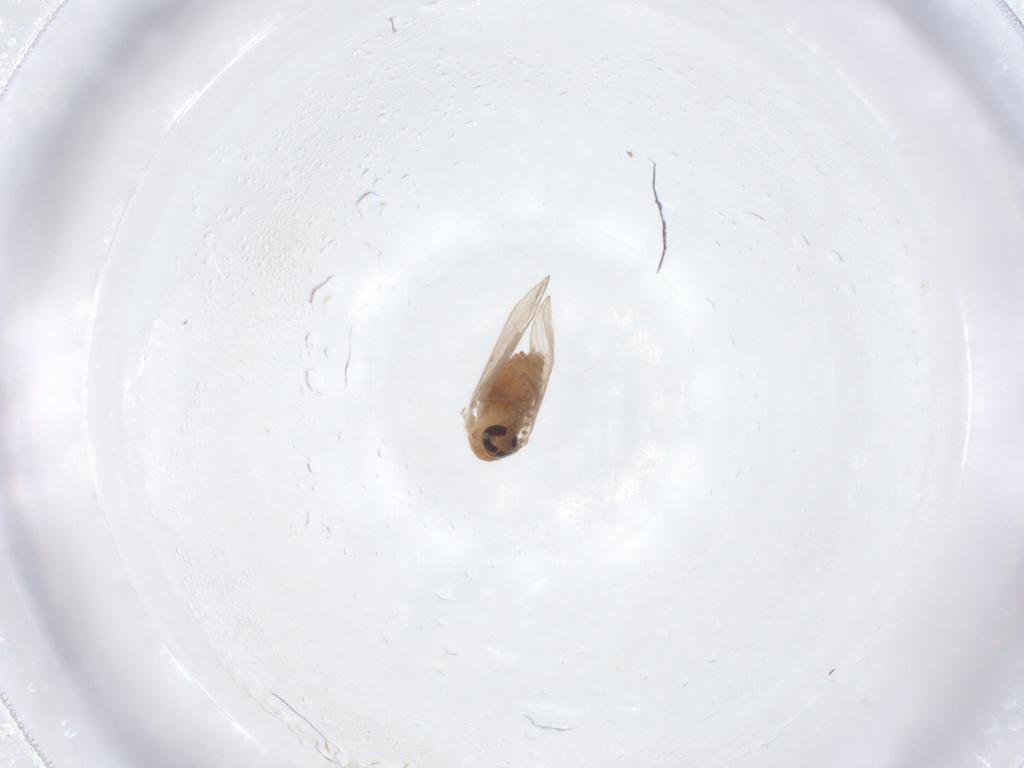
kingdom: Animalia
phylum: Arthropoda
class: Insecta
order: Diptera
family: Psychodidae
